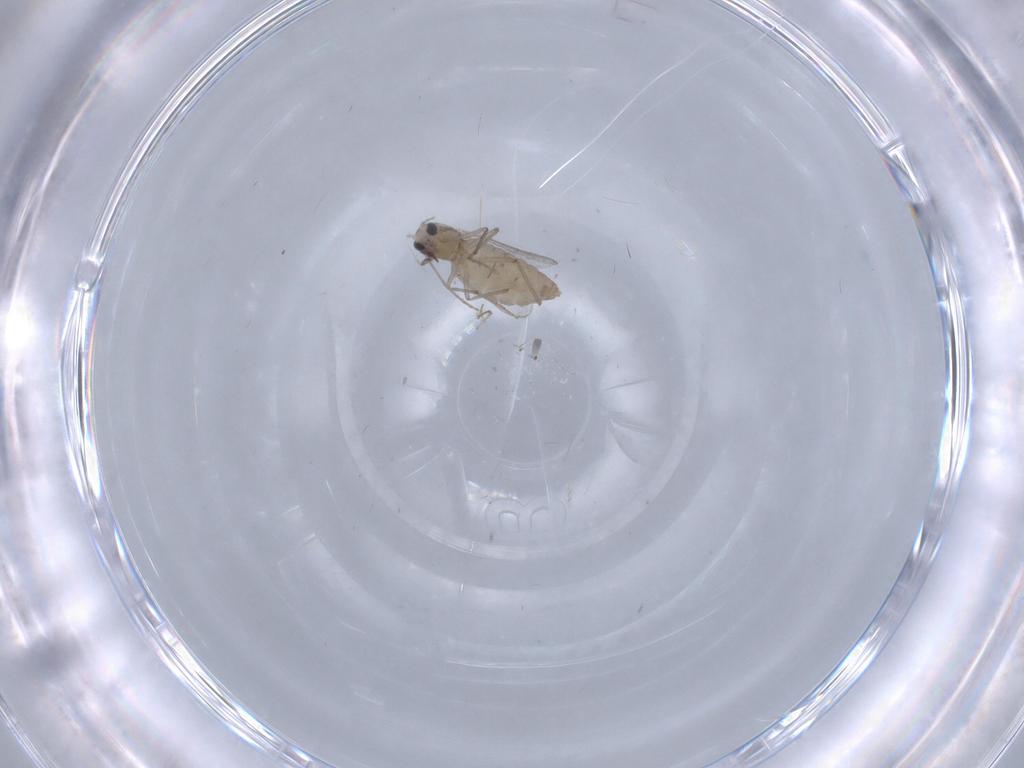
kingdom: Animalia
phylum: Arthropoda
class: Insecta
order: Diptera
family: Chironomidae
